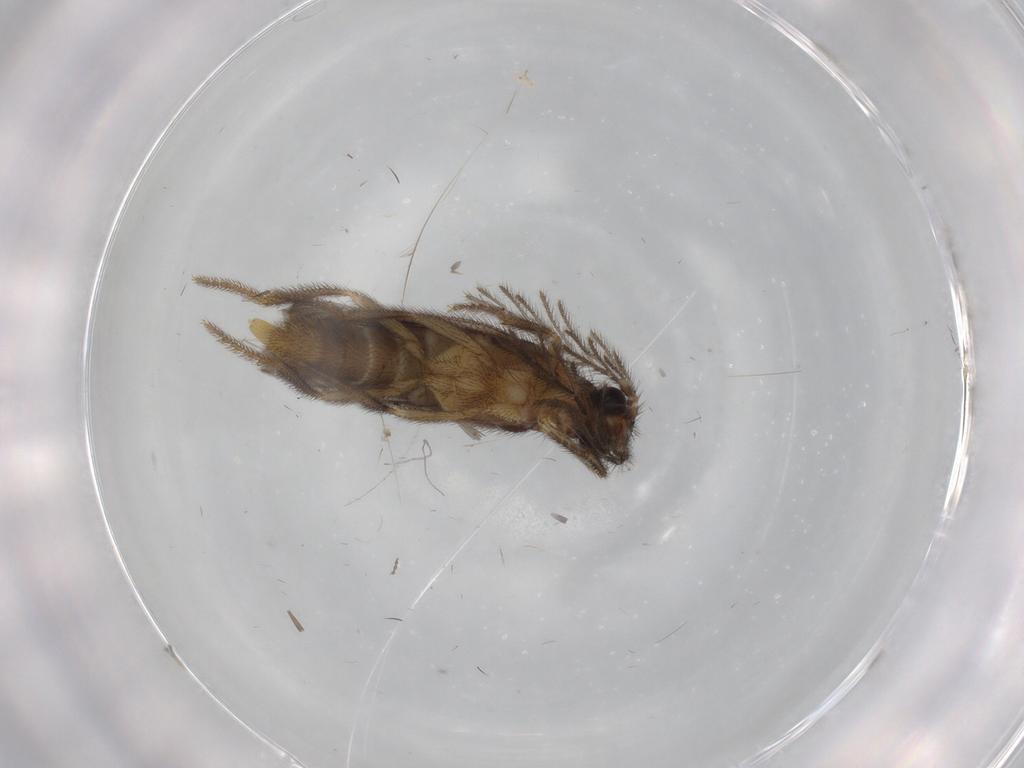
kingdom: Animalia
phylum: Arthropoda
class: Insecta
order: Coleoptera
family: Phengodidae
